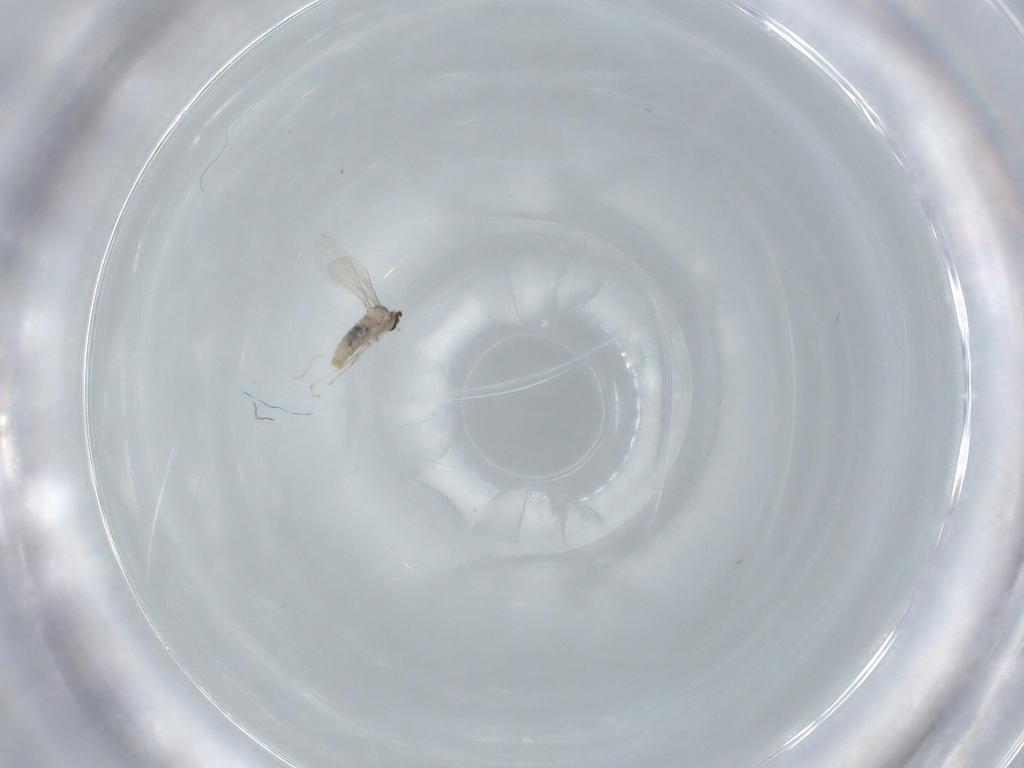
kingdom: Animalia
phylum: Arthropoda
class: Insecta
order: Diptera
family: Cecidomyiidae
